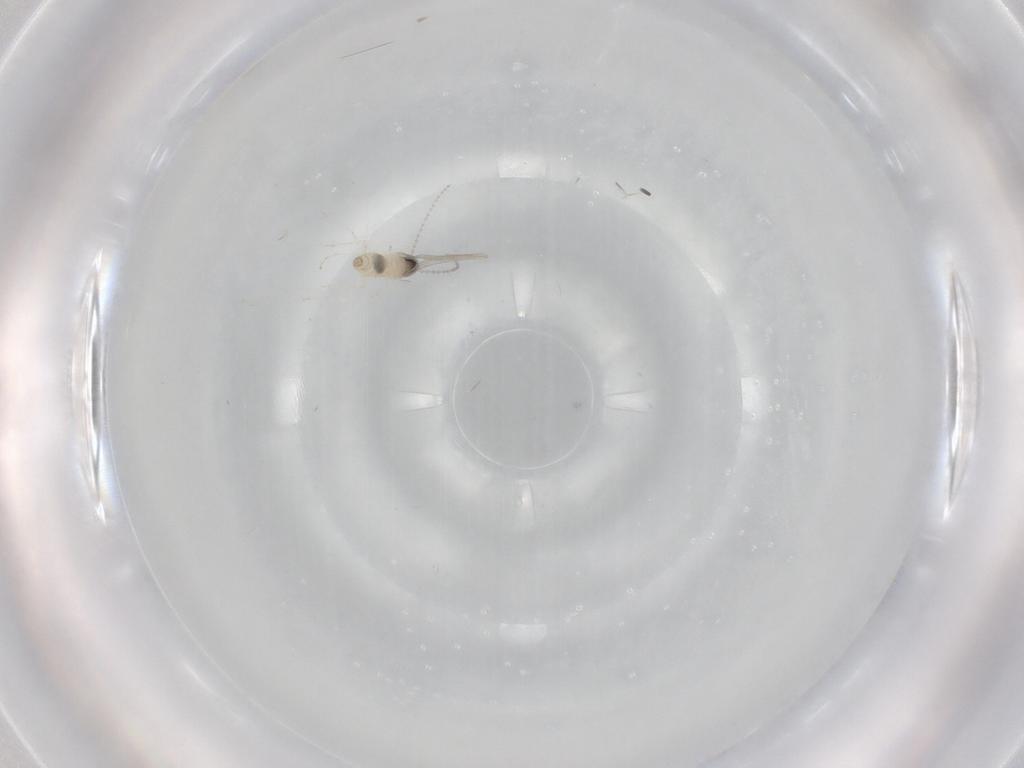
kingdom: Animalia
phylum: Arthropoda
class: Insecta
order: Diptera
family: Cecidomyiidae
